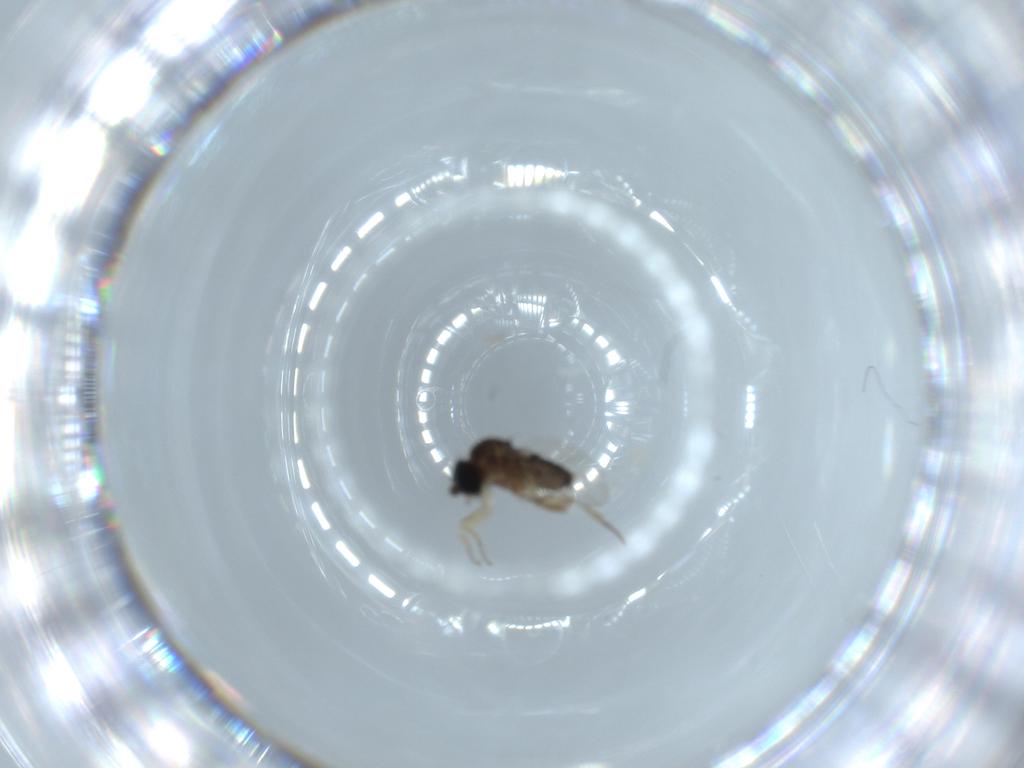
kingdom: Animalia
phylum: Arthropoda
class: Insecta
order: Diptera
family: Phoridae
